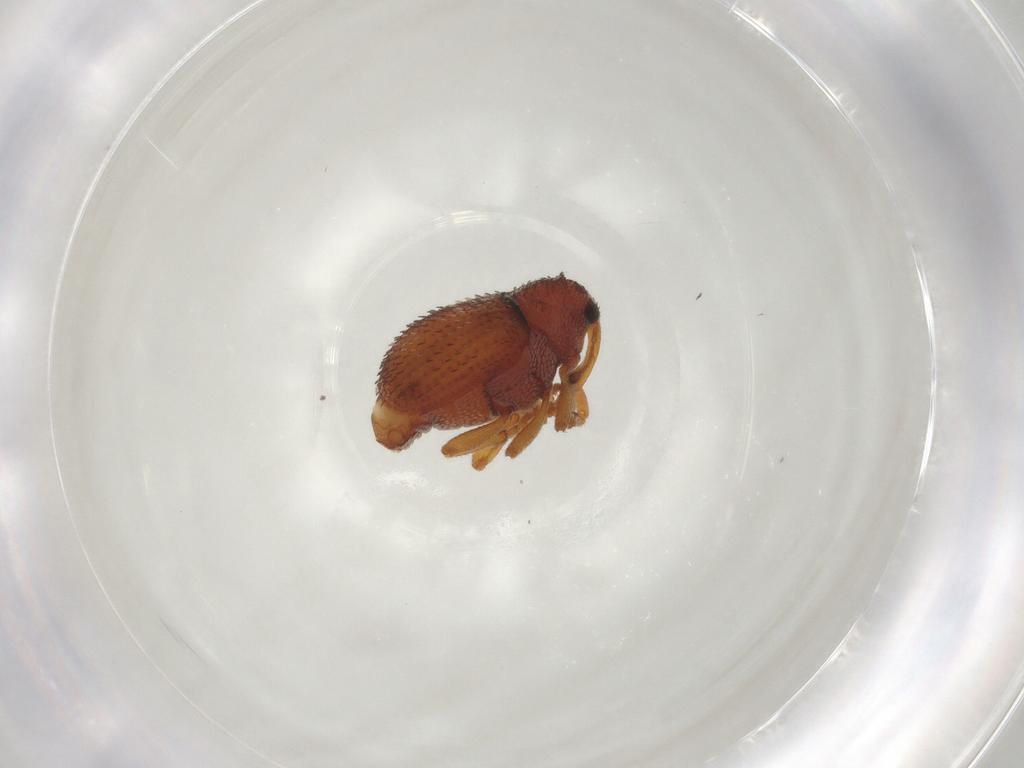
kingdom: Animalia
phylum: Arthropoda
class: Insecta
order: Coleoptera
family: Curculionidae
